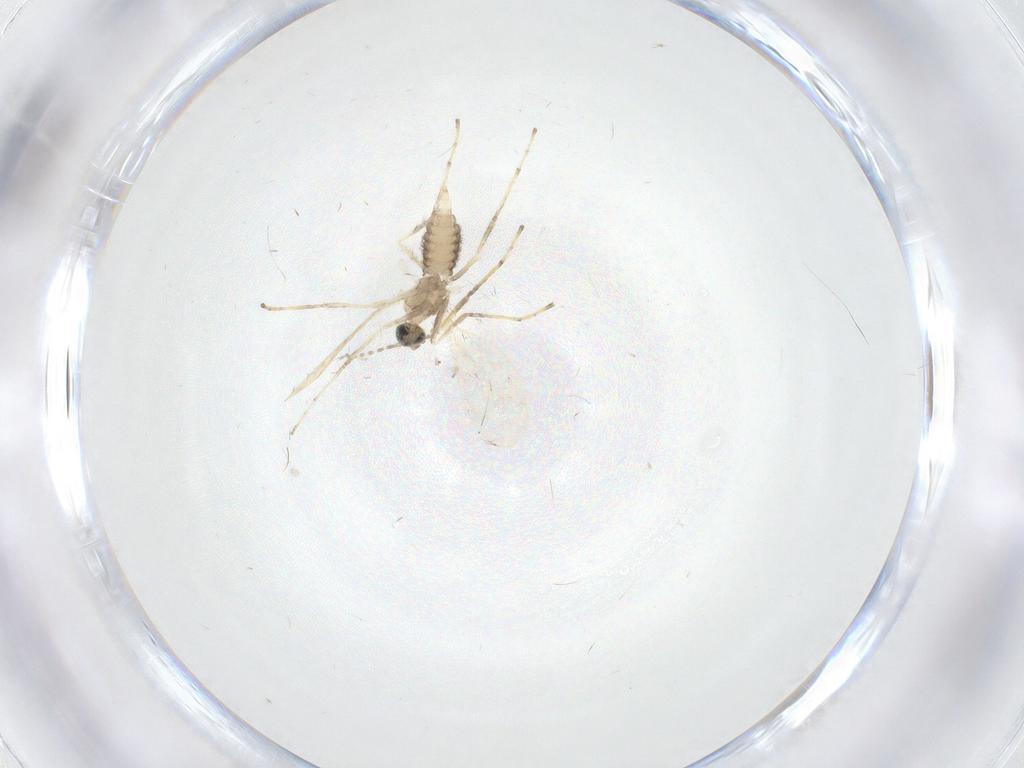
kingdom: Animalia
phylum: Arthropoda
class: Insecta
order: Diptera
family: Cecidomyiidae
